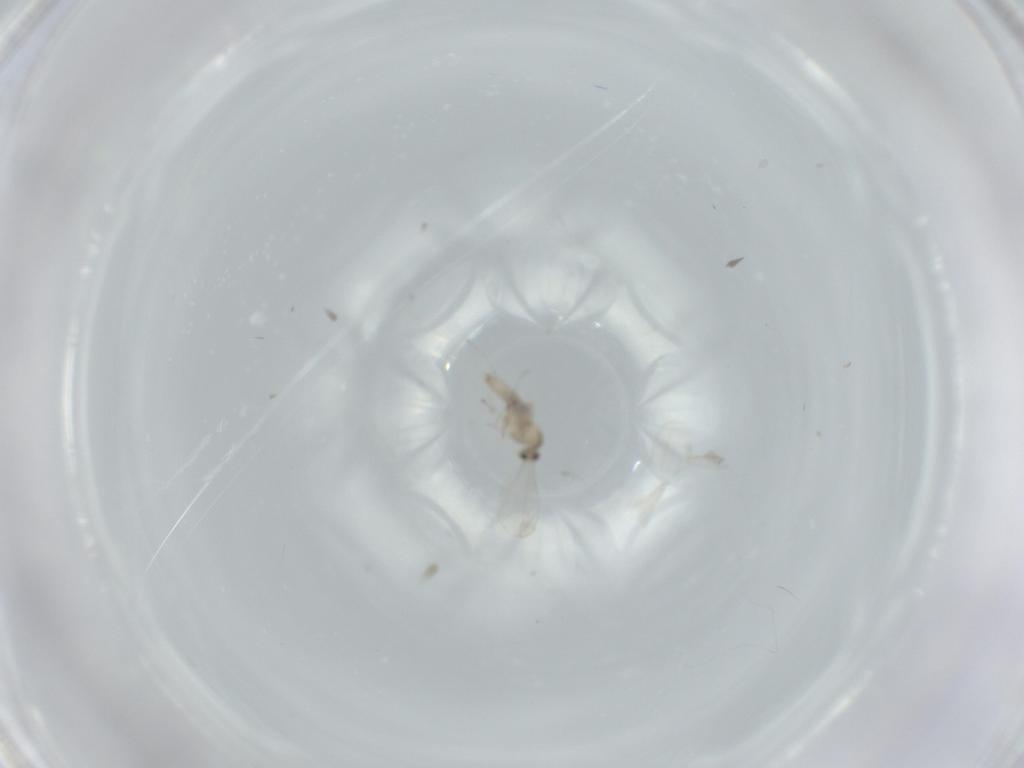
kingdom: Animalia
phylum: Arthropoda
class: Insecta
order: Diptera
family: Cecidomyiidae
